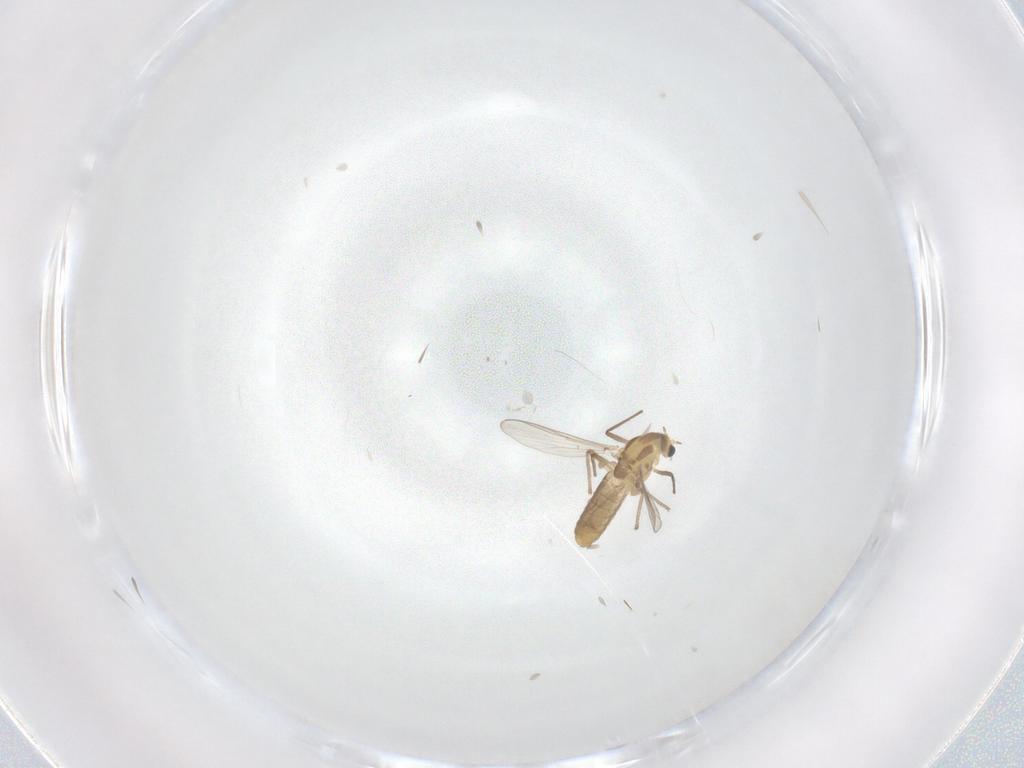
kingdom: Animalia
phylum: Arthropoda
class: Insecta
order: Diptera
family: Chironomidae
